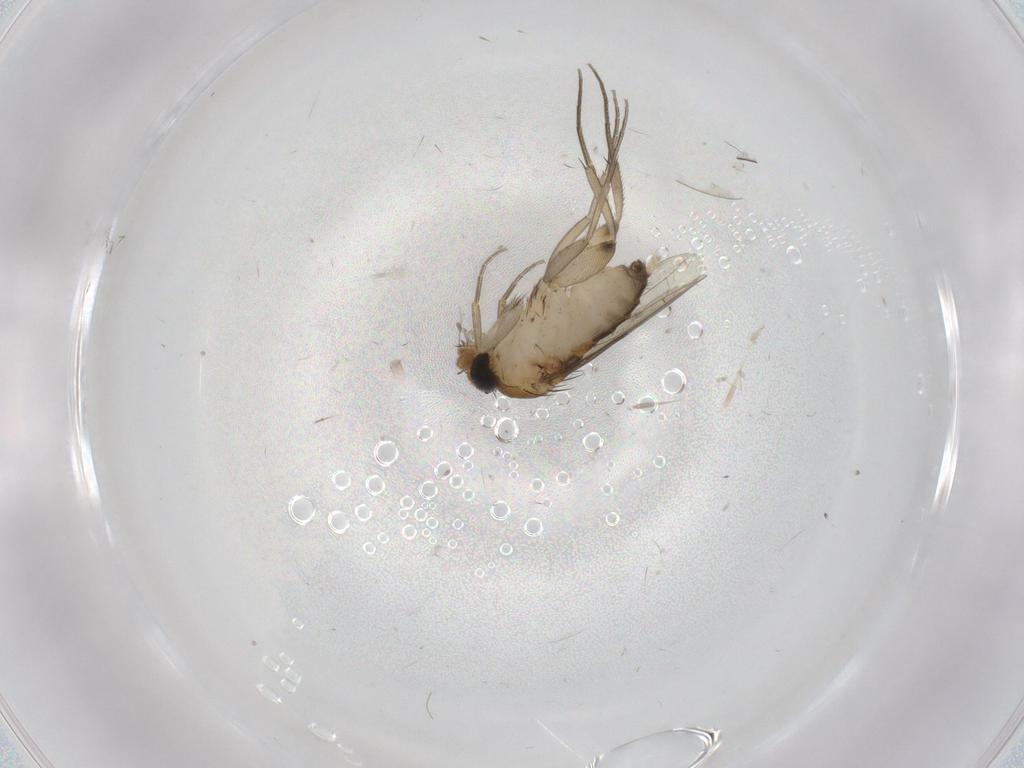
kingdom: Animalia
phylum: Arthropoda
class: Insecta
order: Diptera
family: Phoridae
